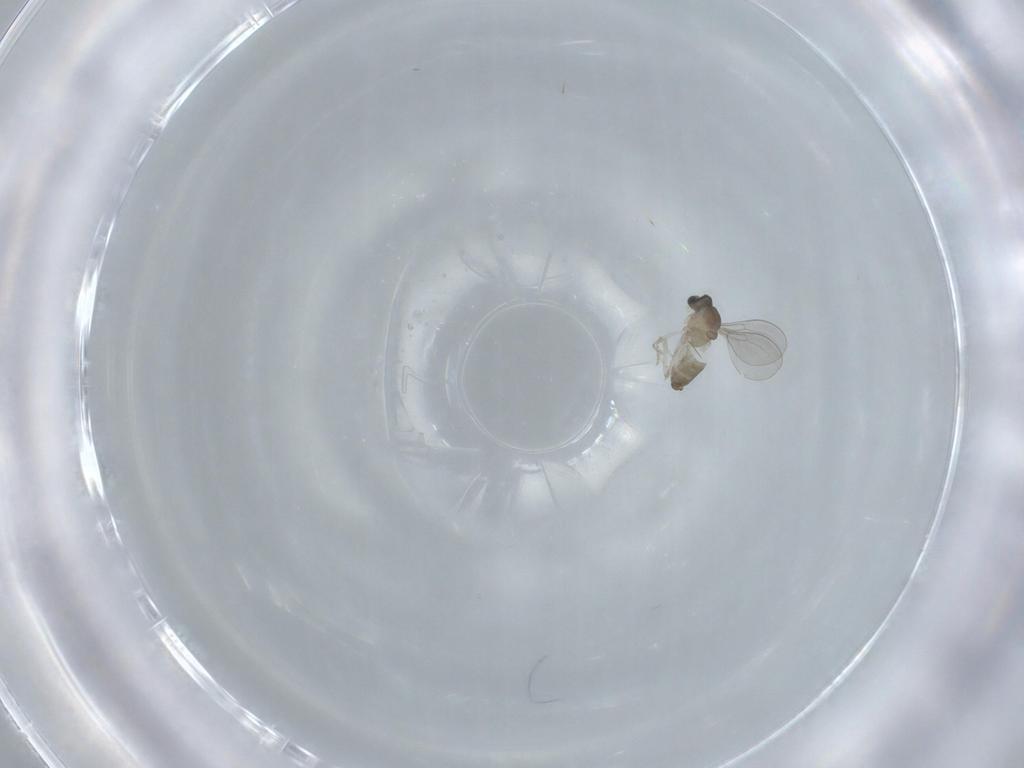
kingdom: Animalia
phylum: Arthropoda
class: Insecta
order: Diptera
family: Cecidomyiidae
